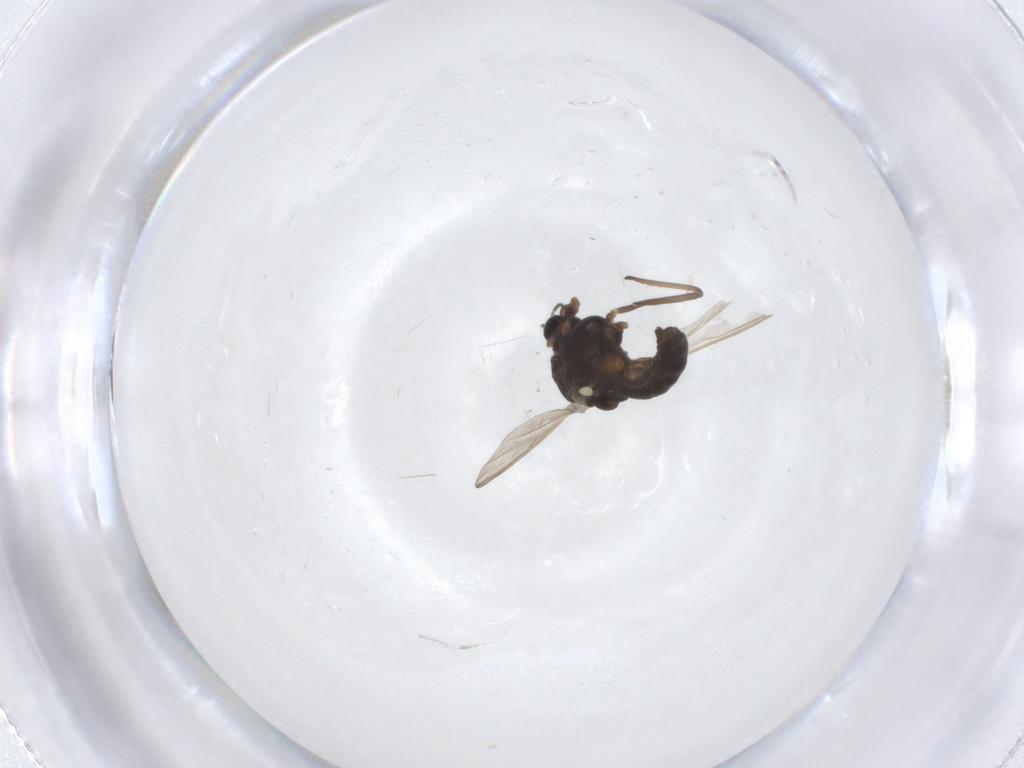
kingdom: Animalia
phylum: Arthropoda
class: Insecta
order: Diptera
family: Chironomidae
